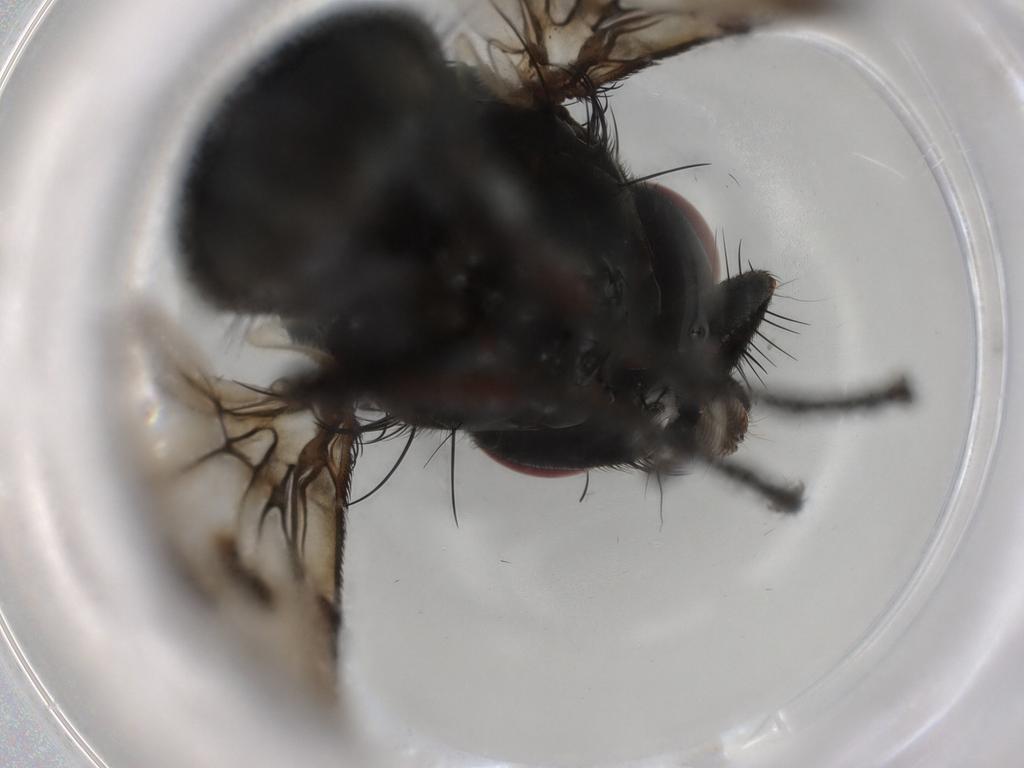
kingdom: Animalia
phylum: Arthropoda
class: Insecta
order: Diptera
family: Muscidae
